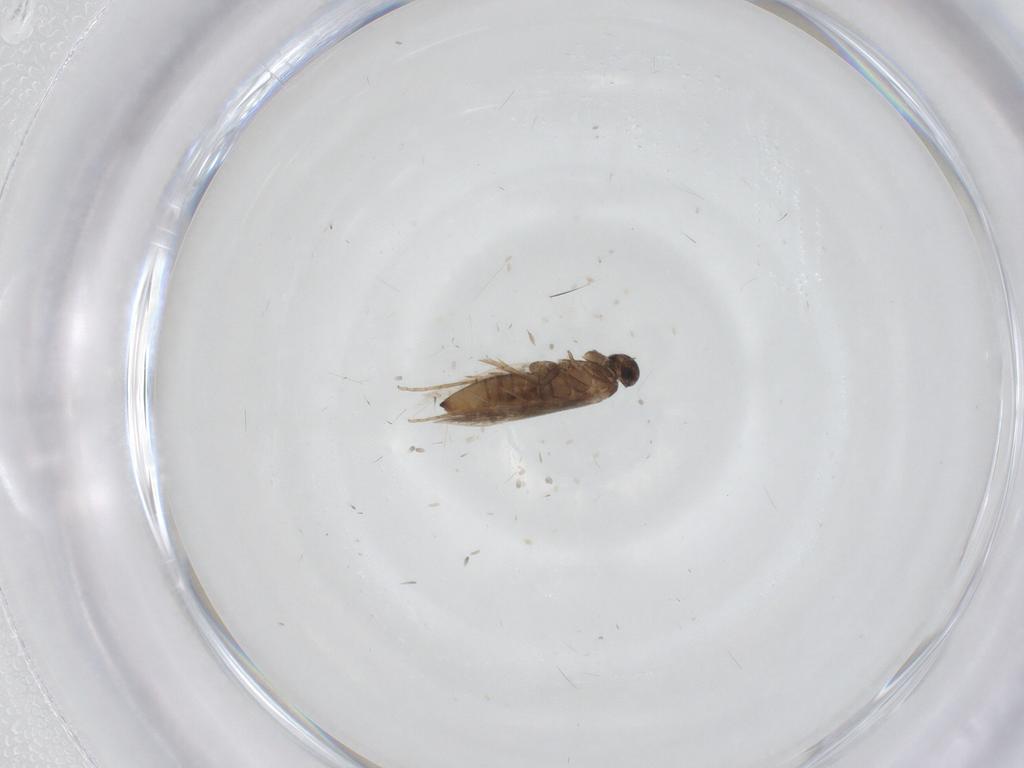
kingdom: Animalia
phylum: Arthropoda
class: Insecta
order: Lepidoptera
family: Oecophoridae
